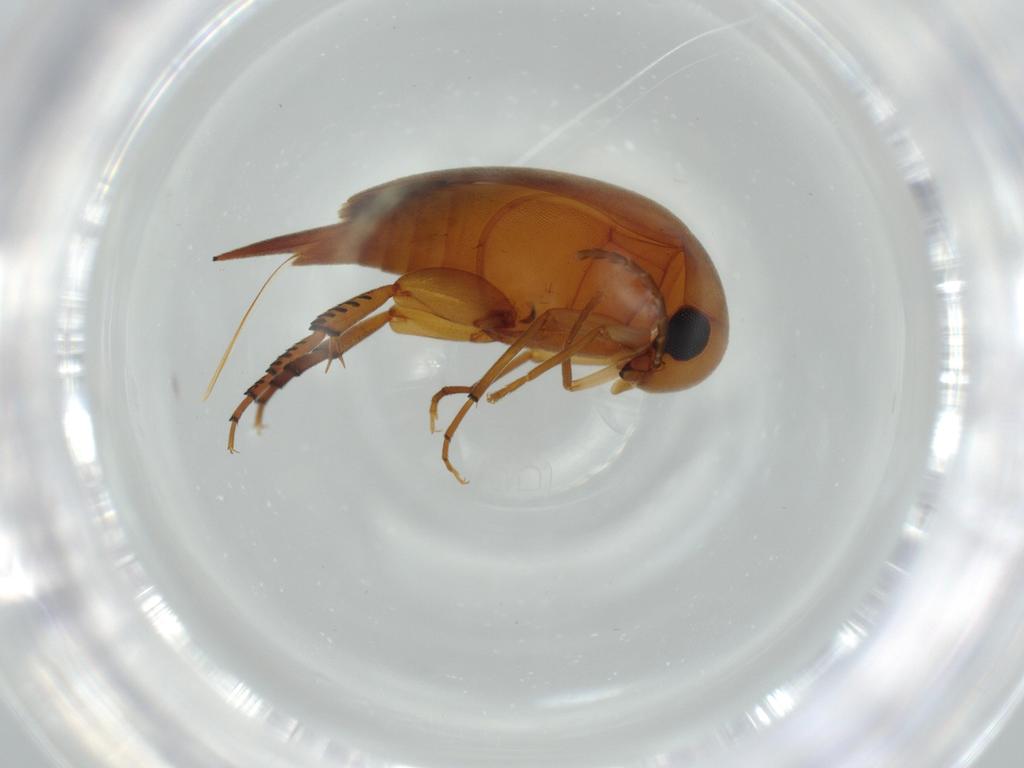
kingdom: Animalia
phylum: Arthropoda
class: Insecta
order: Coleoptera
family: Mordellidae
